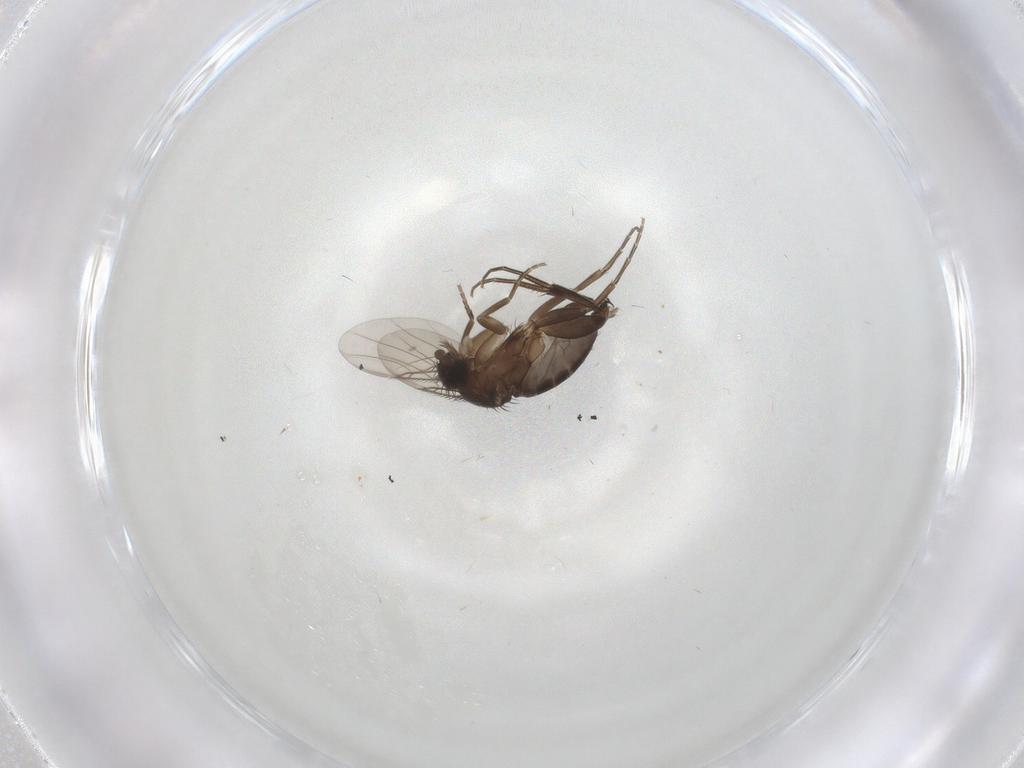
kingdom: Animalia
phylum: Arthropoda
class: Insecta
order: Diptera
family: Phoridae
